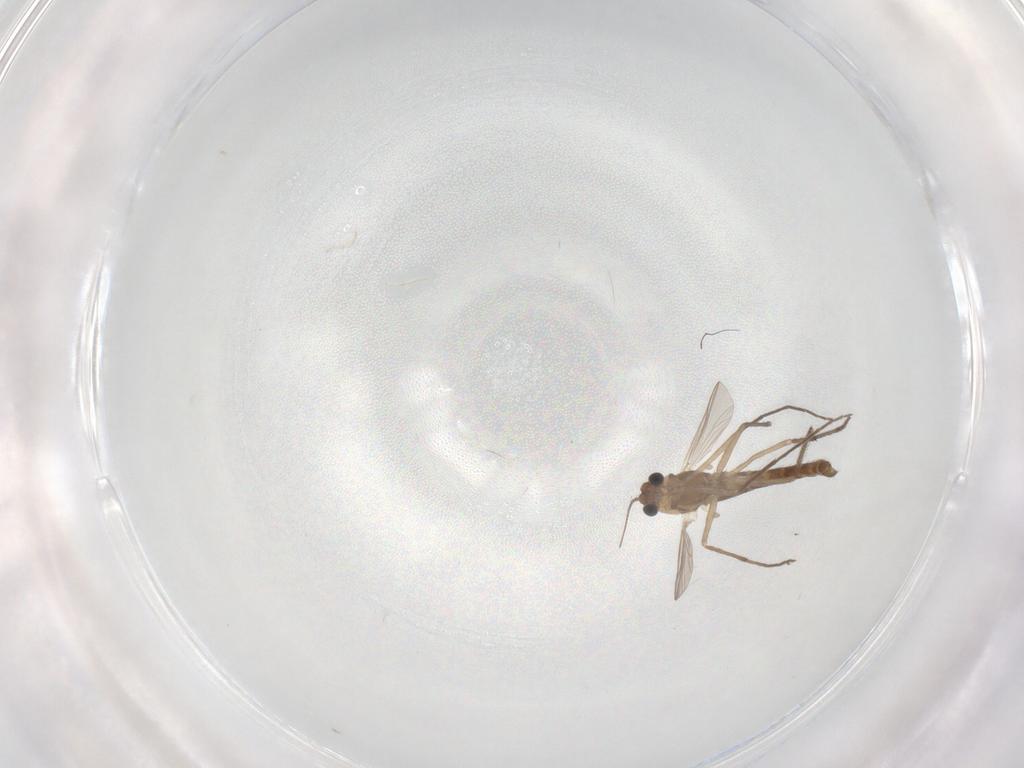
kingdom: Animalia
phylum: Arthropoda
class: Insecta
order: Diptera
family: Chironomidae
